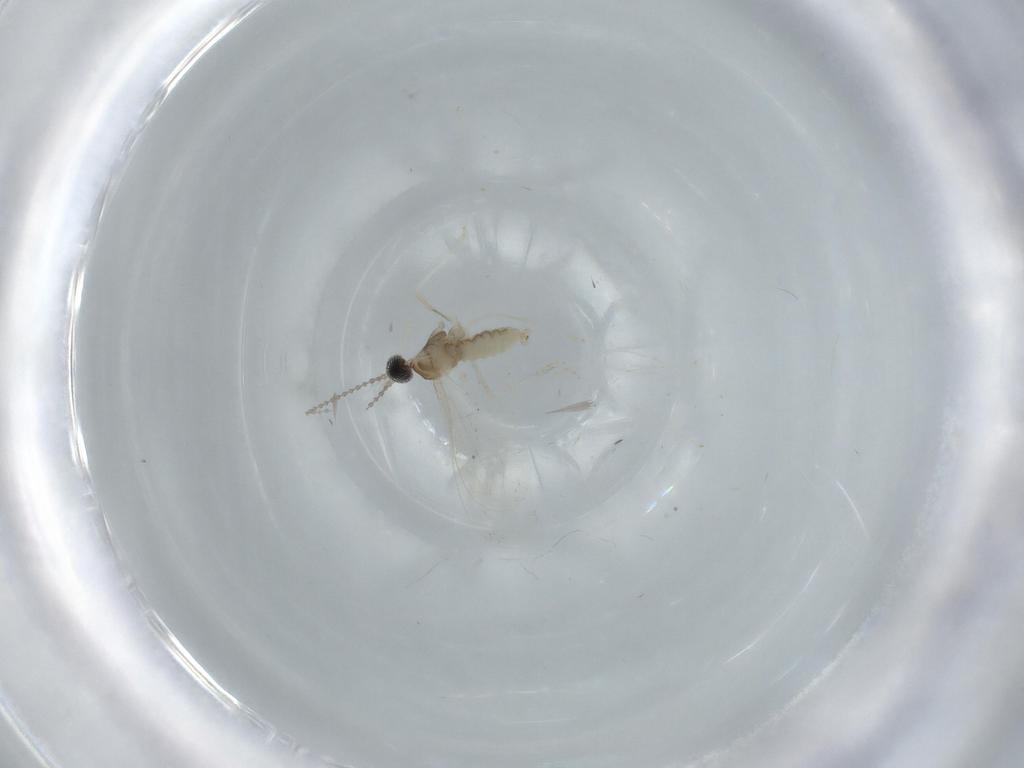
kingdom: Animalia
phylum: Arthropoda
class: Insecta
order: Diptera
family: Cecidomyiidae
